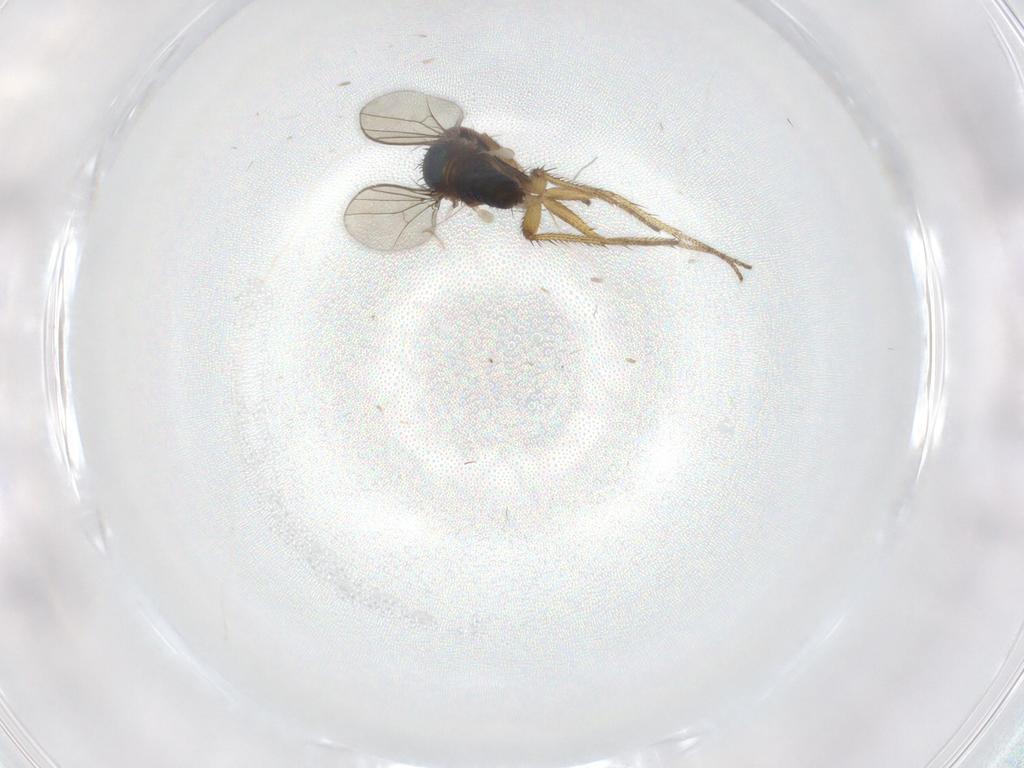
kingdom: Animalia
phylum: Arthropoda
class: Insecta
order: Diptera
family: Dolichopodidae
